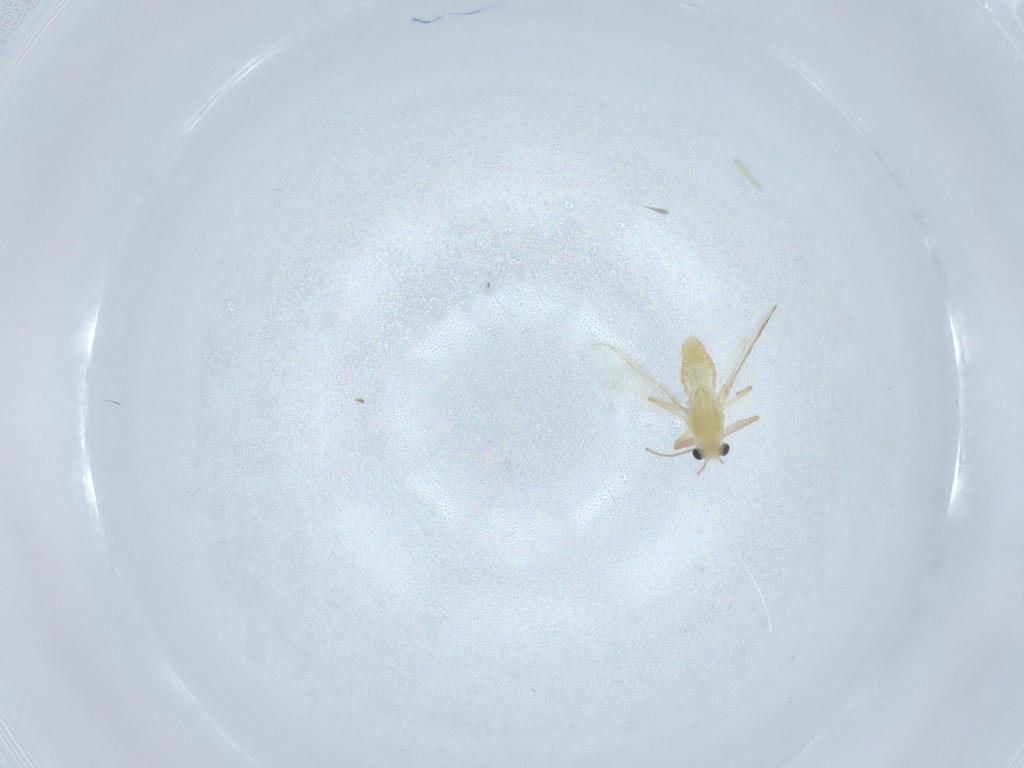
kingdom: Animalia
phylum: Arthropoda
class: Insecta
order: Diptera
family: Chironomidae
